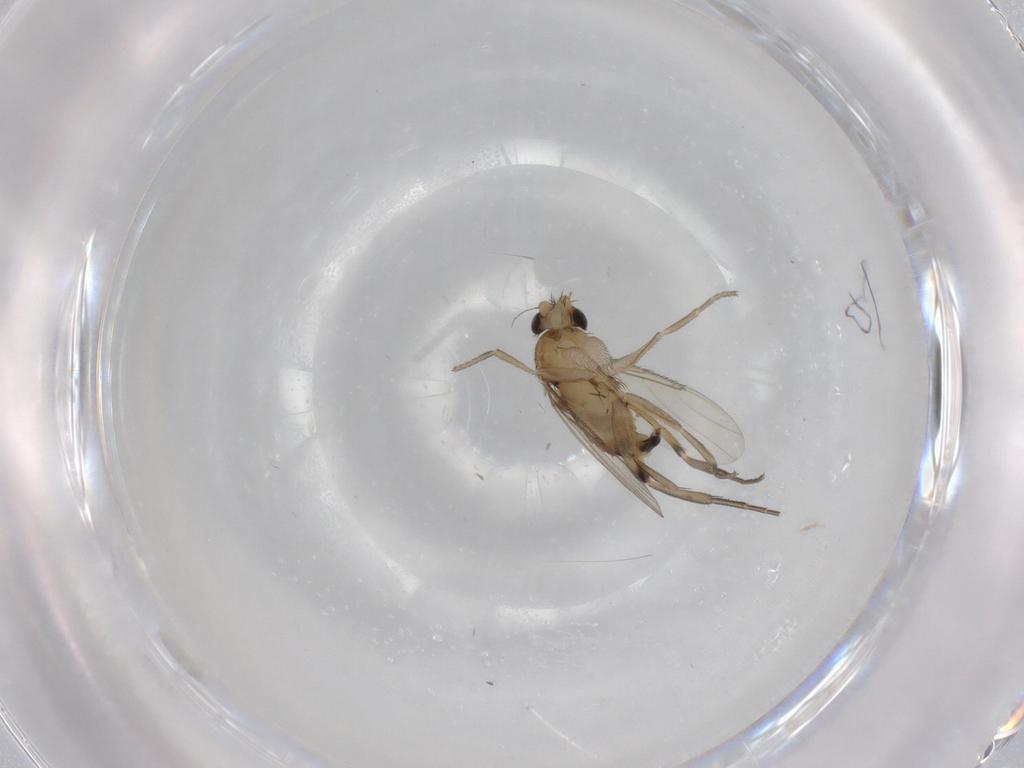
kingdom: Animalia
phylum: Arthropoda
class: Insecta
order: Diptera
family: Phoridae
